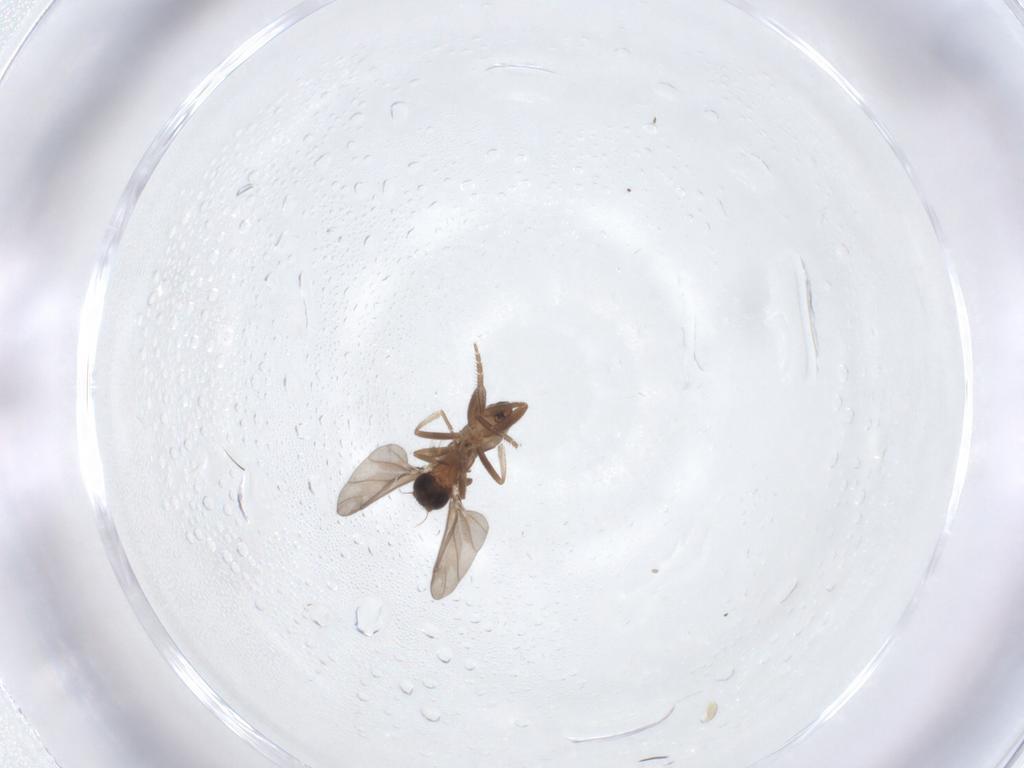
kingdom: Animalia
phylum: Arthropoda
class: Insecta
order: Diptera
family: Phoridae
